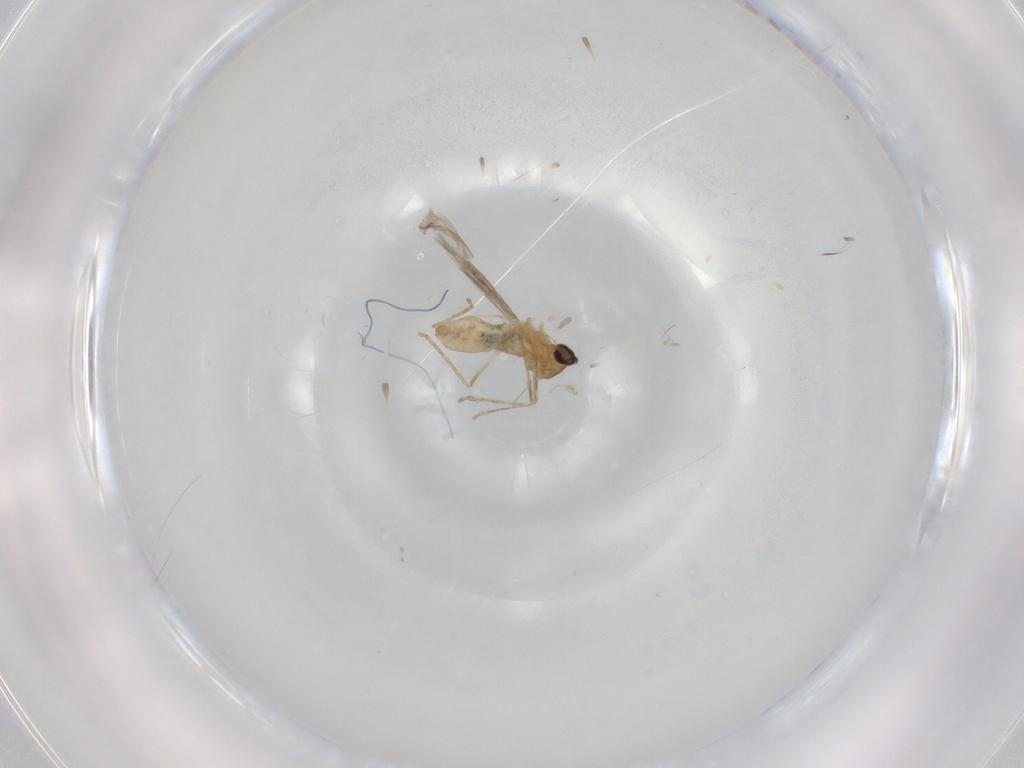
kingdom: Animalia
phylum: Arthropoda
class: Insecta
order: Diptera
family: Cecidomyiidae
